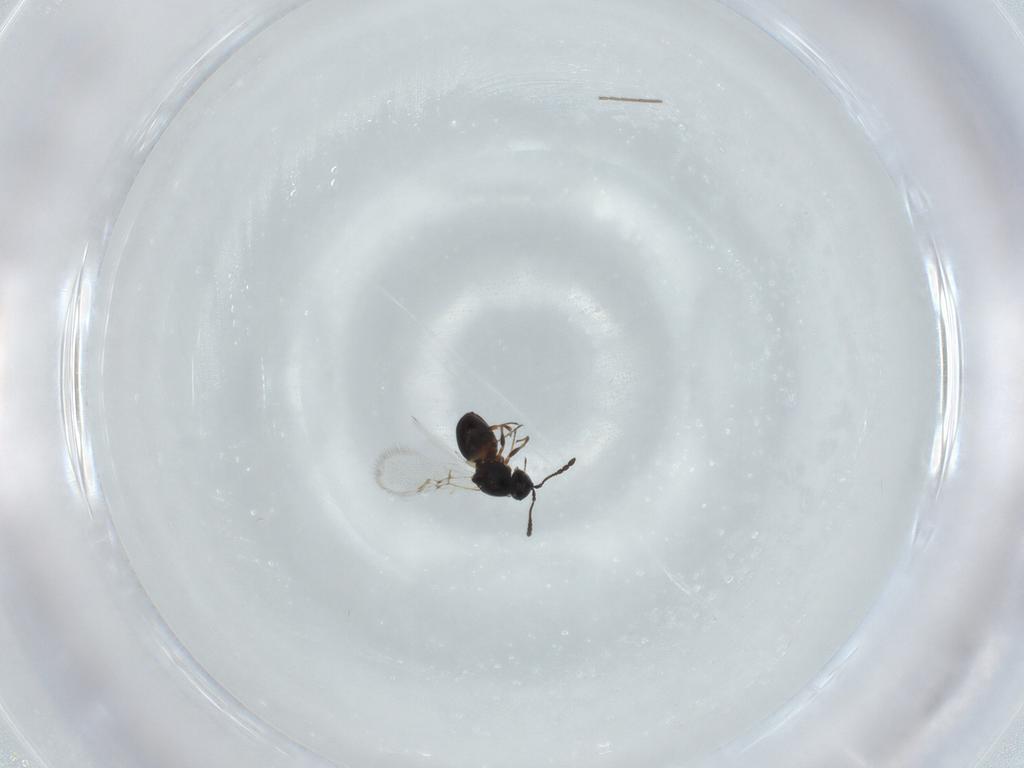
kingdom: Animalia
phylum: Arthropoda
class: Insecta
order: Hymenoptera
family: Figitidae
